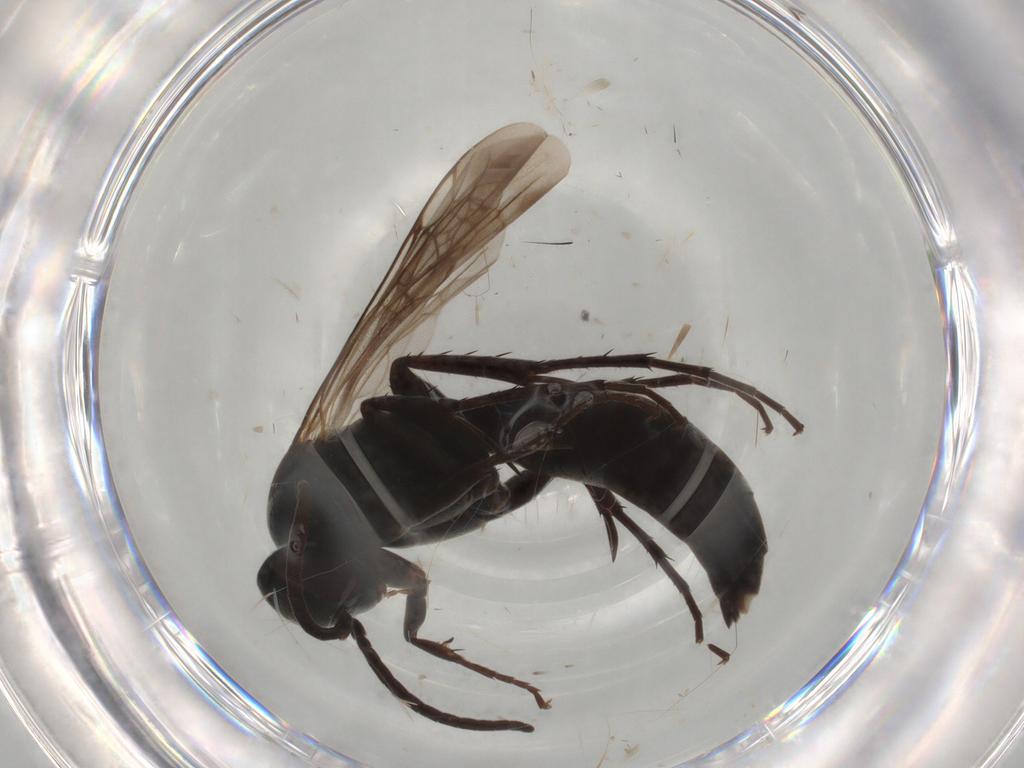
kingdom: Animalia
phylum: Arthropoda
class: Insecta
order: Hymenoptera
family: Pompilidae
